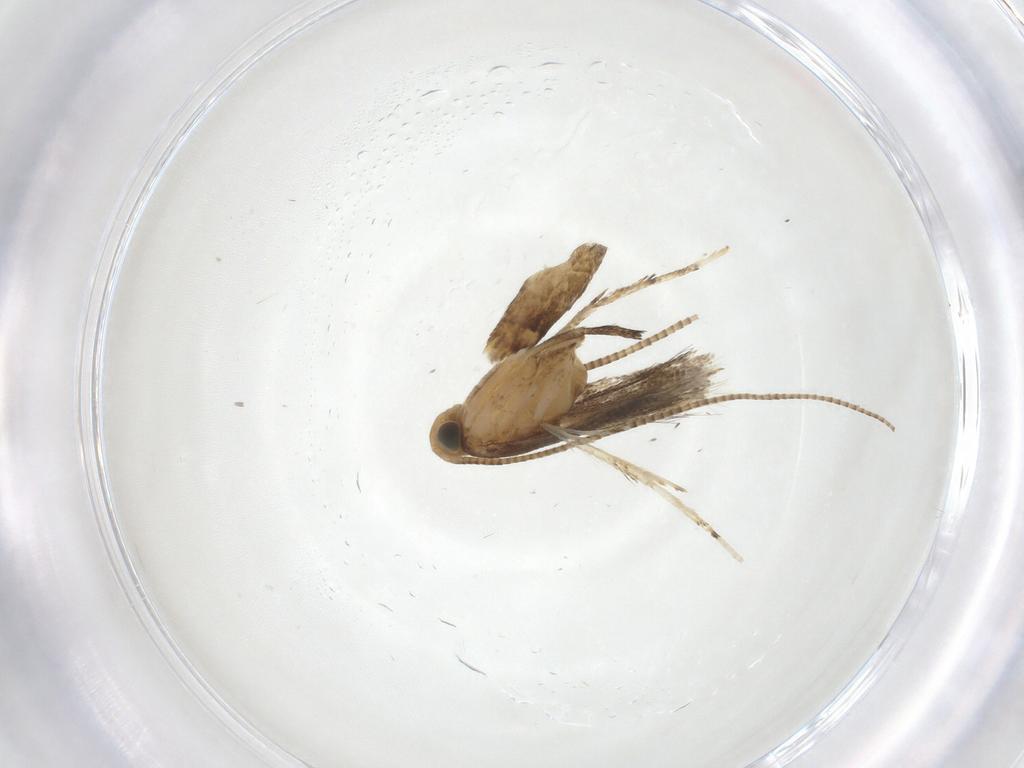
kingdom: Animalia
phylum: Arthropoda
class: Insecta
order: Lepidoptera
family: Gracillariidae
